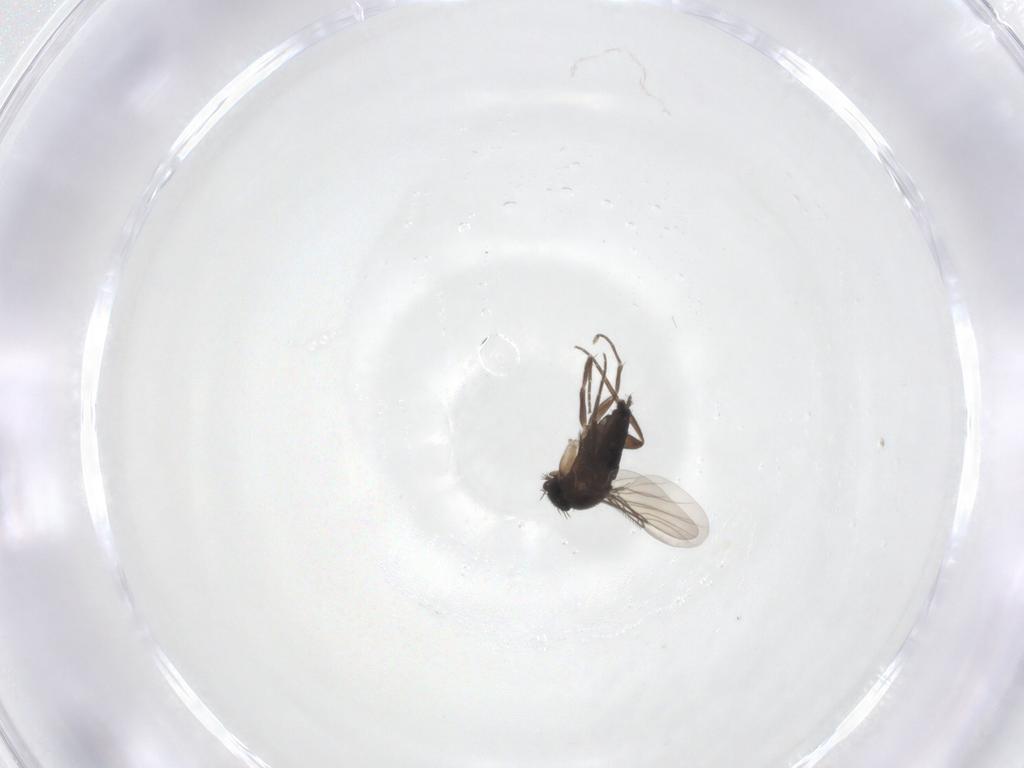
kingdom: Animalia
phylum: Arthropoda
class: Insecta
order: Diptera
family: Phoridae
